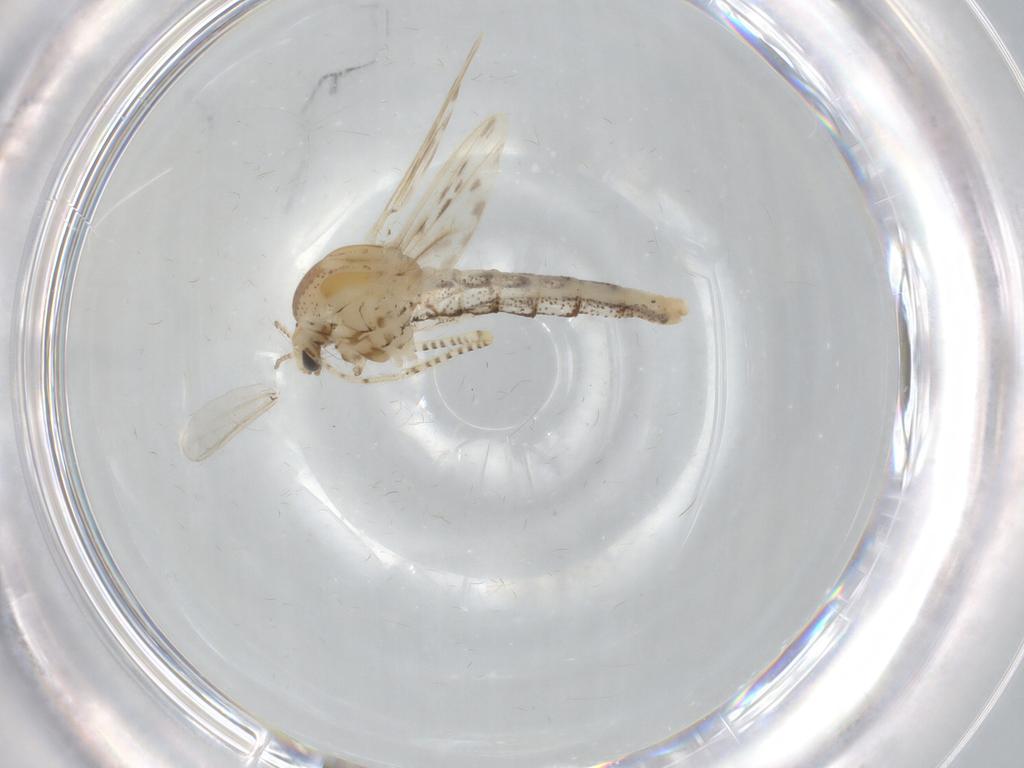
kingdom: Animalia
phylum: Arthropoda
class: Insecta
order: Diptera
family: Chaoboridae
